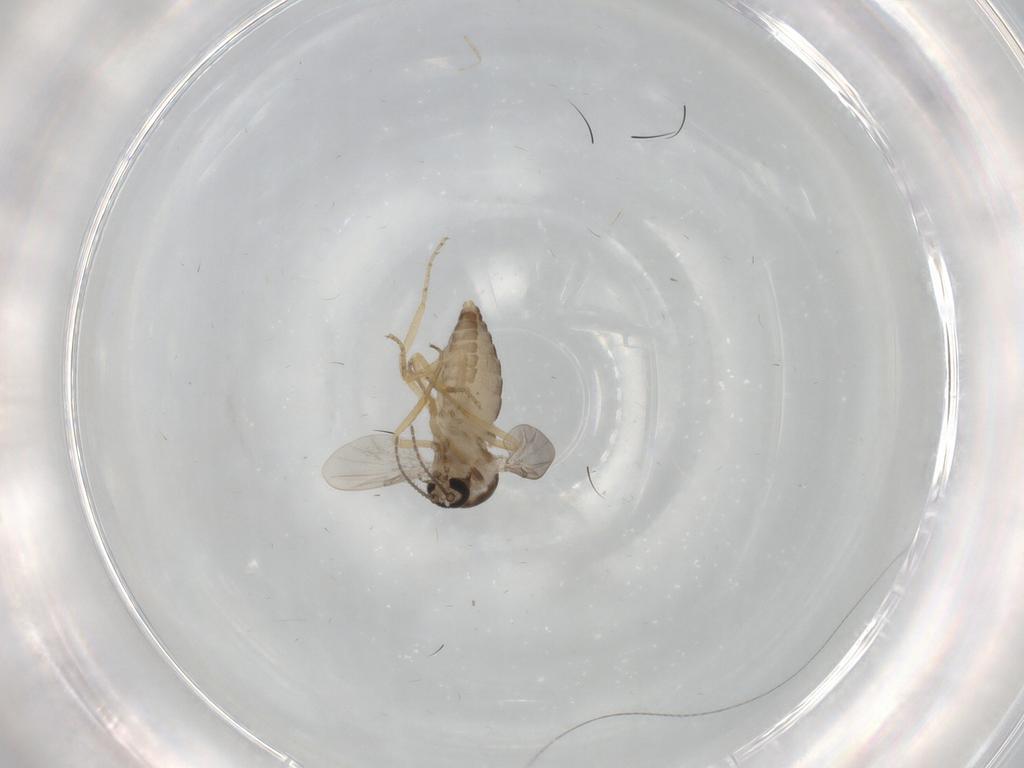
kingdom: Animalia
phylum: Arthropoda
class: Insecta
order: Diptera
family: Ceratopogonidae
